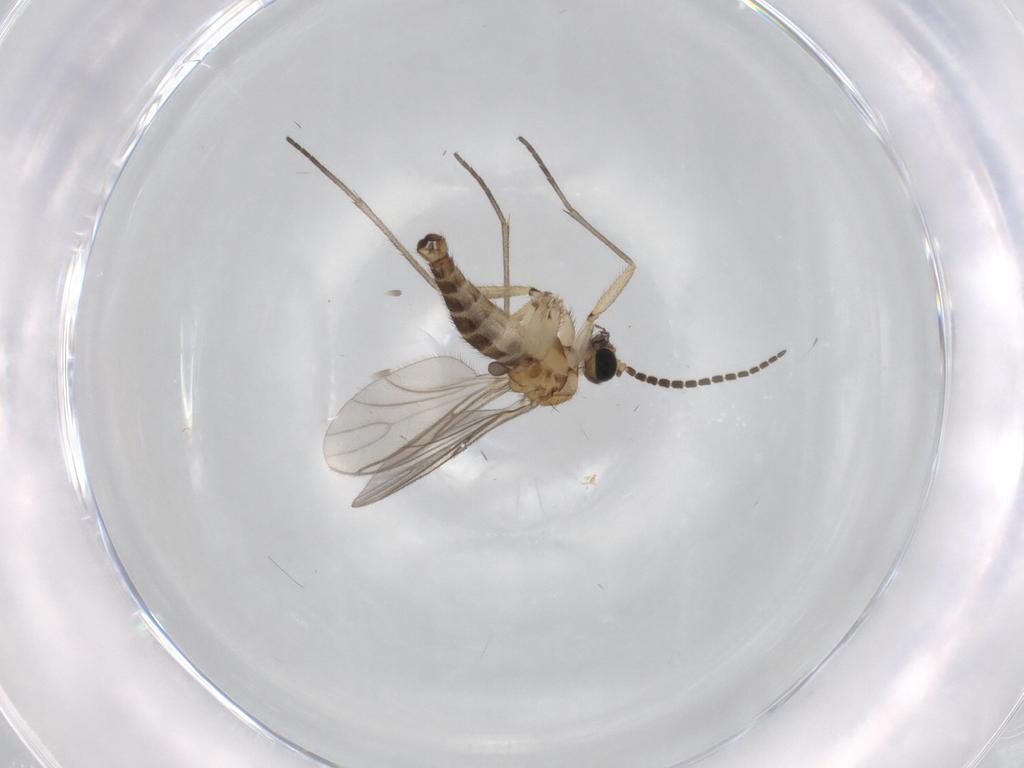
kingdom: Animalia
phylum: Arthropoda
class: Insecta
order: Diptera
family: Sciaridae
